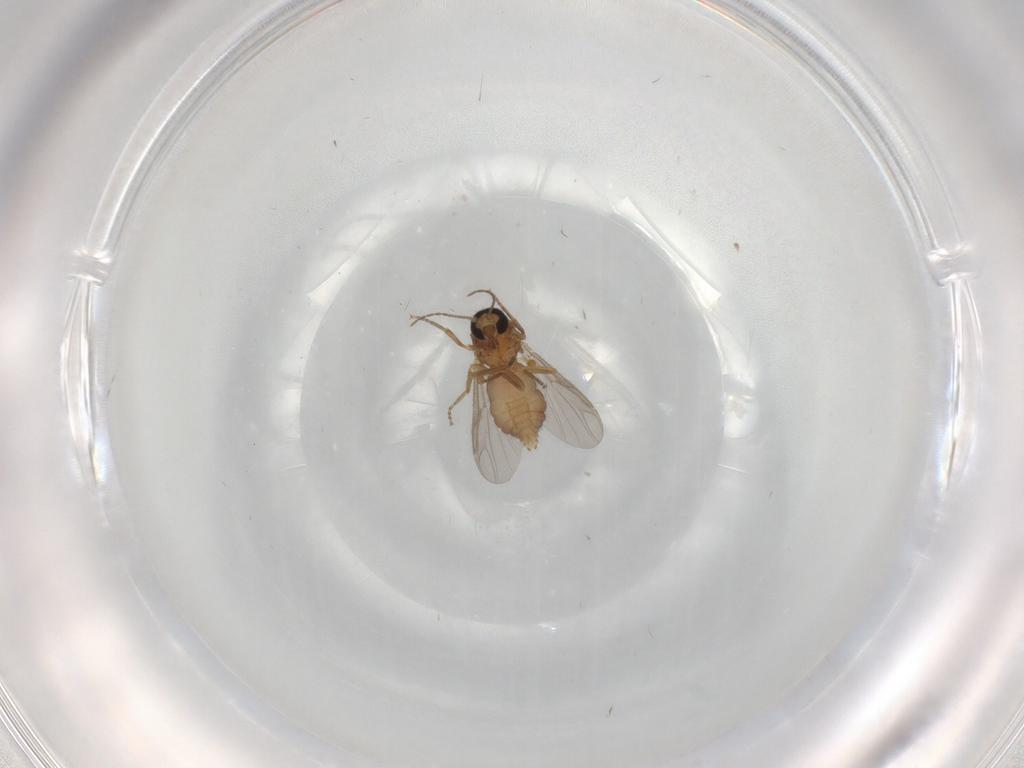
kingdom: Animalia
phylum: Arthropoda
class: Insecta
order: Diptera
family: Ceratopogonidae
